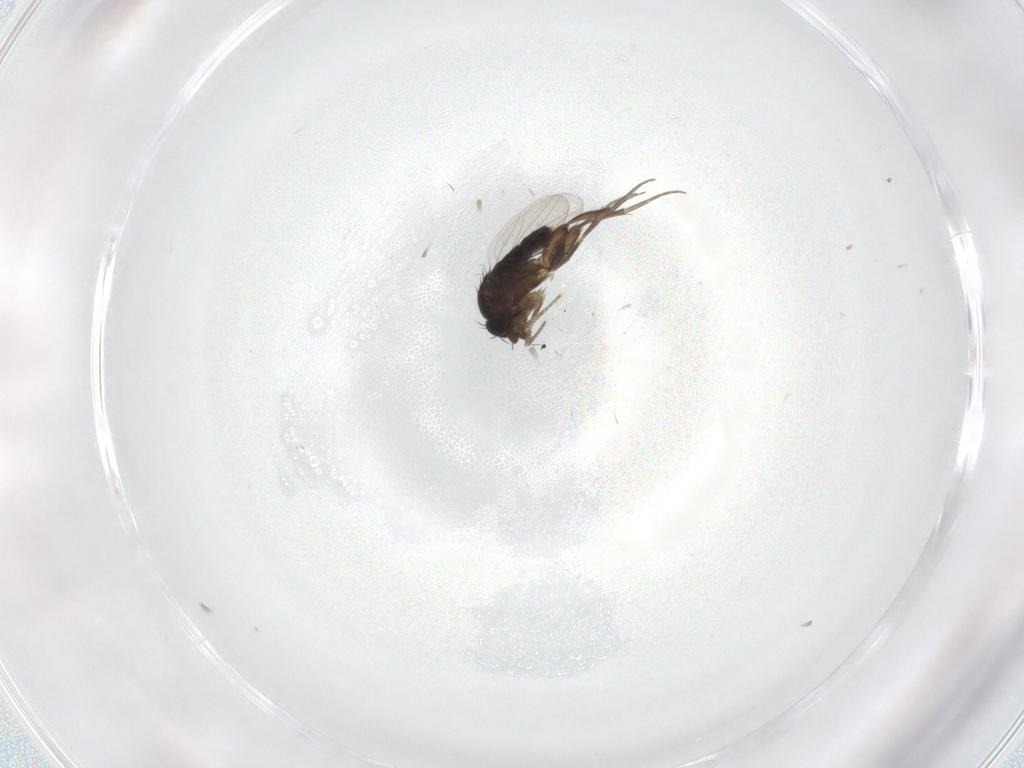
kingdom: Animalia
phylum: Arthropoda
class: Insecta
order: Diptera
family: Phoridae
